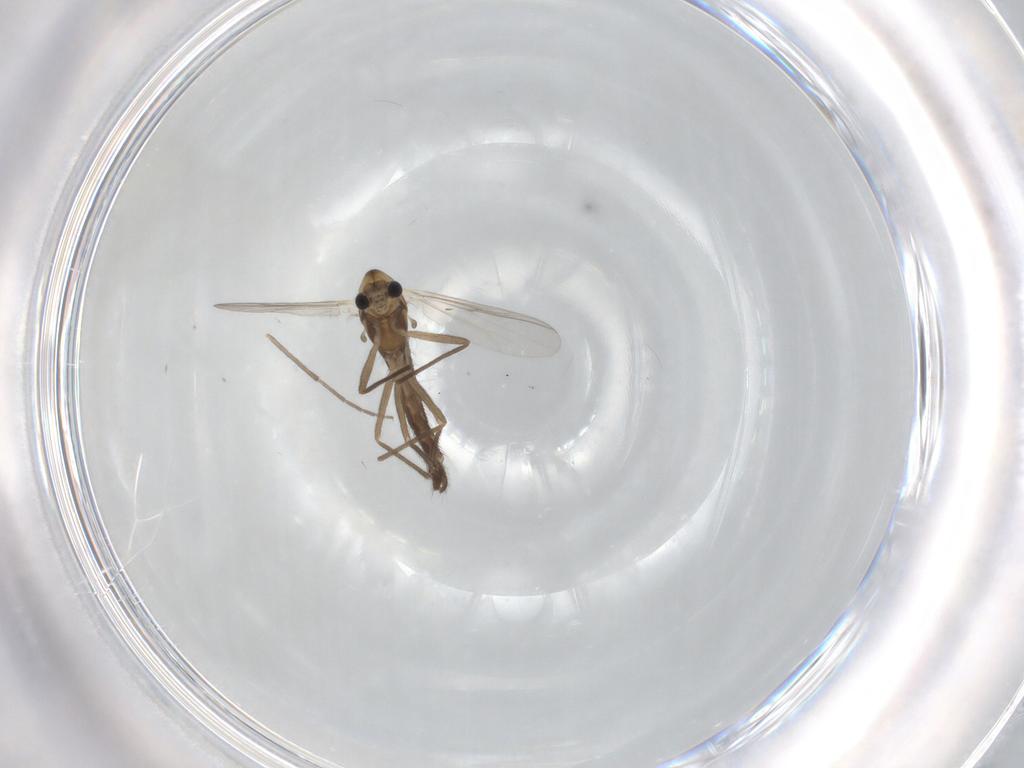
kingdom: Animalia
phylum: Arthropoda
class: Insecta
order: Diptera
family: Chironomidae
